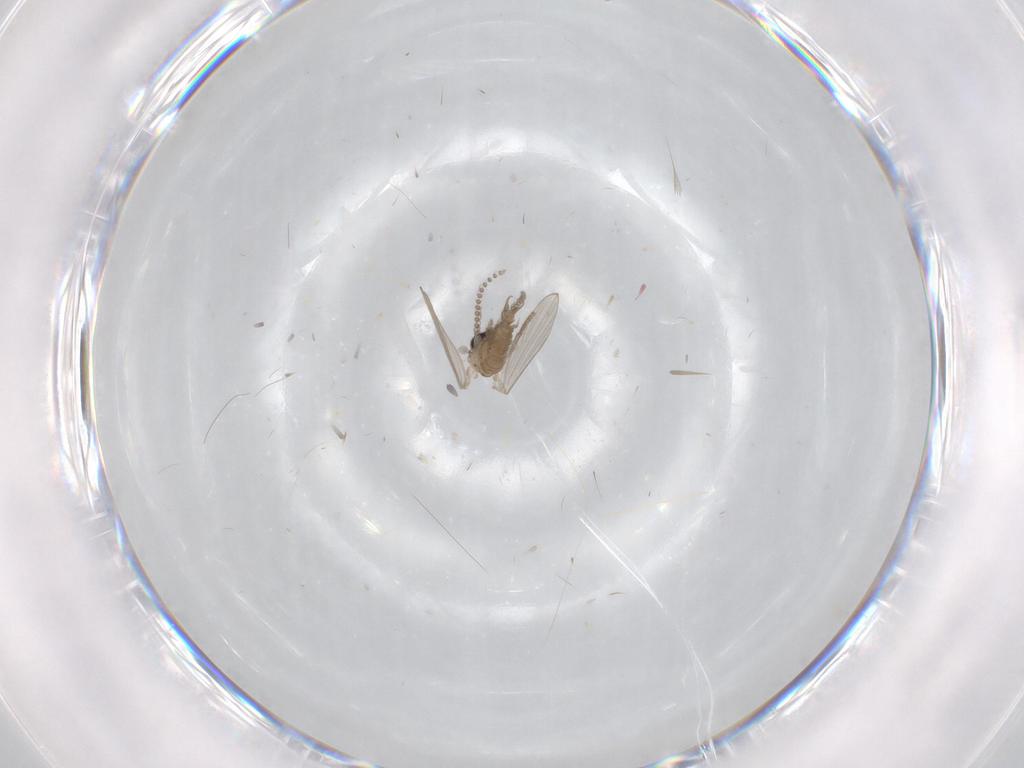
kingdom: Animalia
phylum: Arthropoda
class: Insecta
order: Diptera
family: Psychodidae
